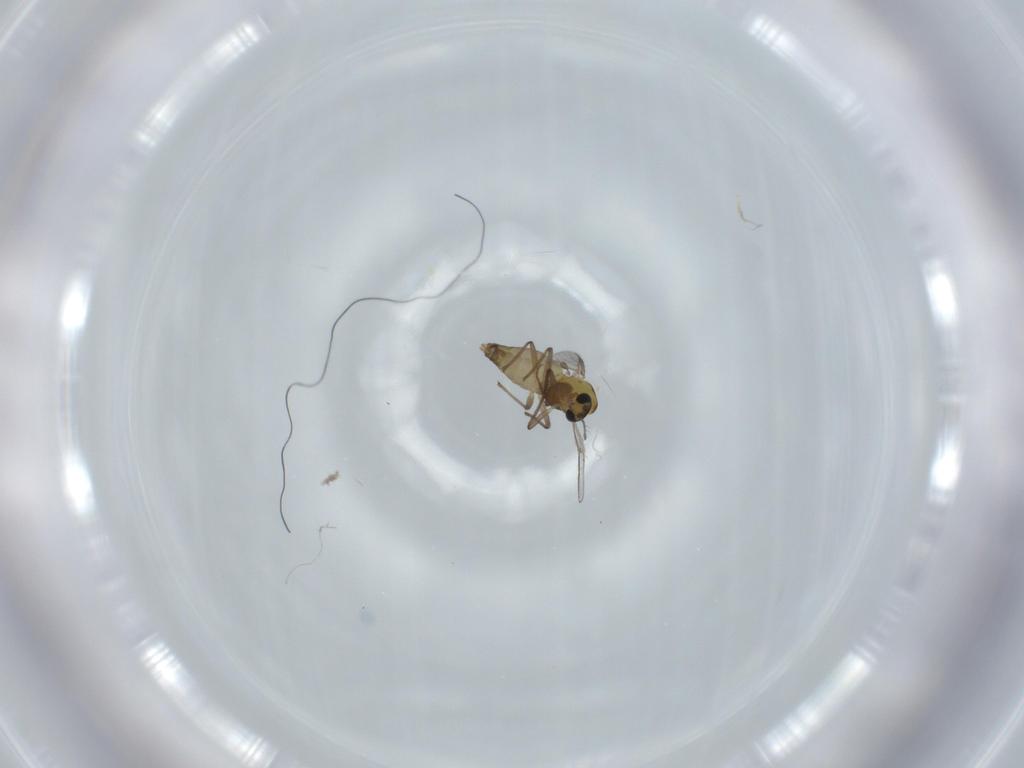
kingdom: Animalia
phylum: Arthropoda
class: Insecta
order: Diptera
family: Chironomidae
